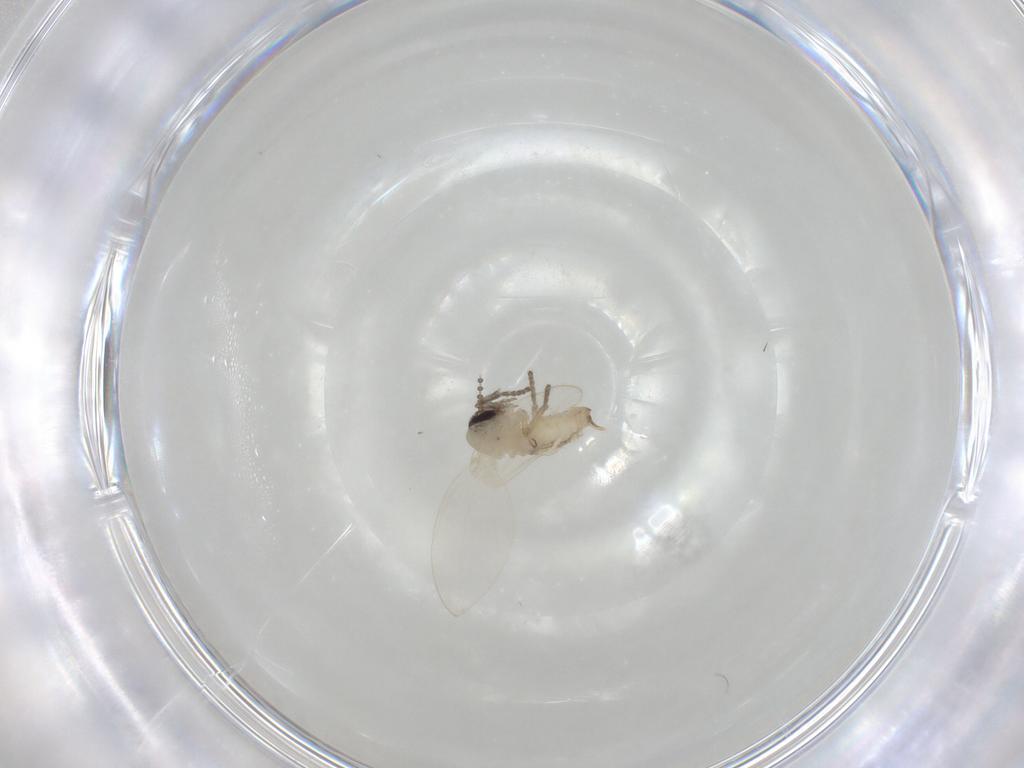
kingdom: Animalia
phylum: Arthropoda
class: Insecta
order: Diptera
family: Psychodidae
